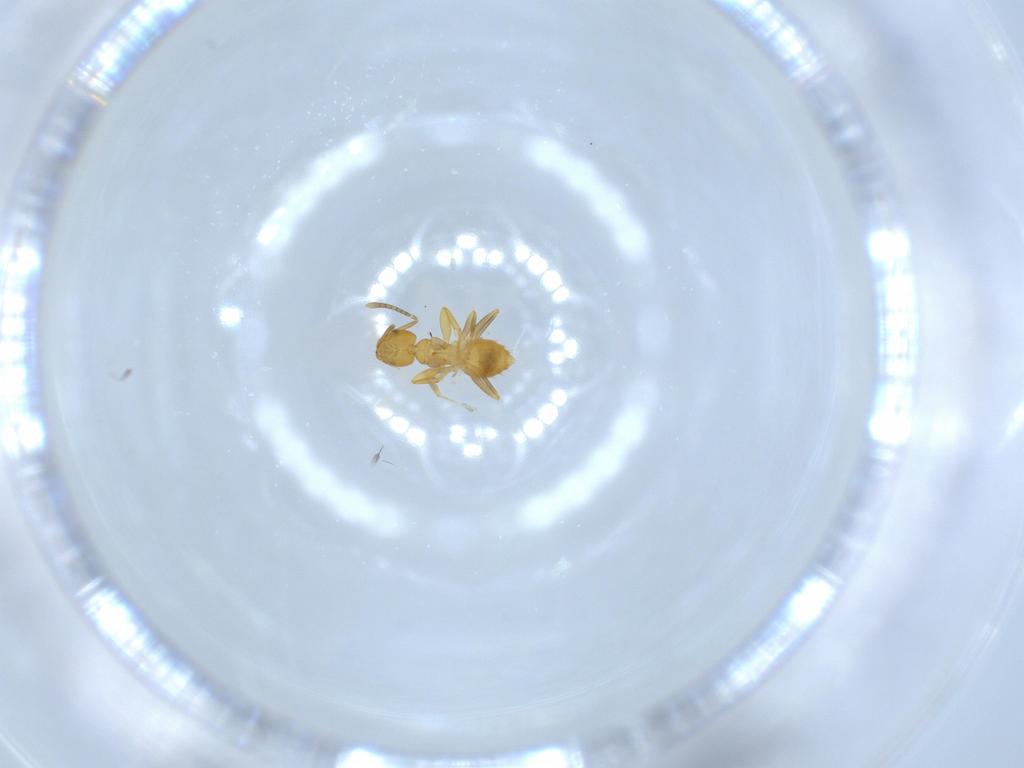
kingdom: Animalia
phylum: Arthropoda
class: Insecta
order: Hymenoptera
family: Formicidae
